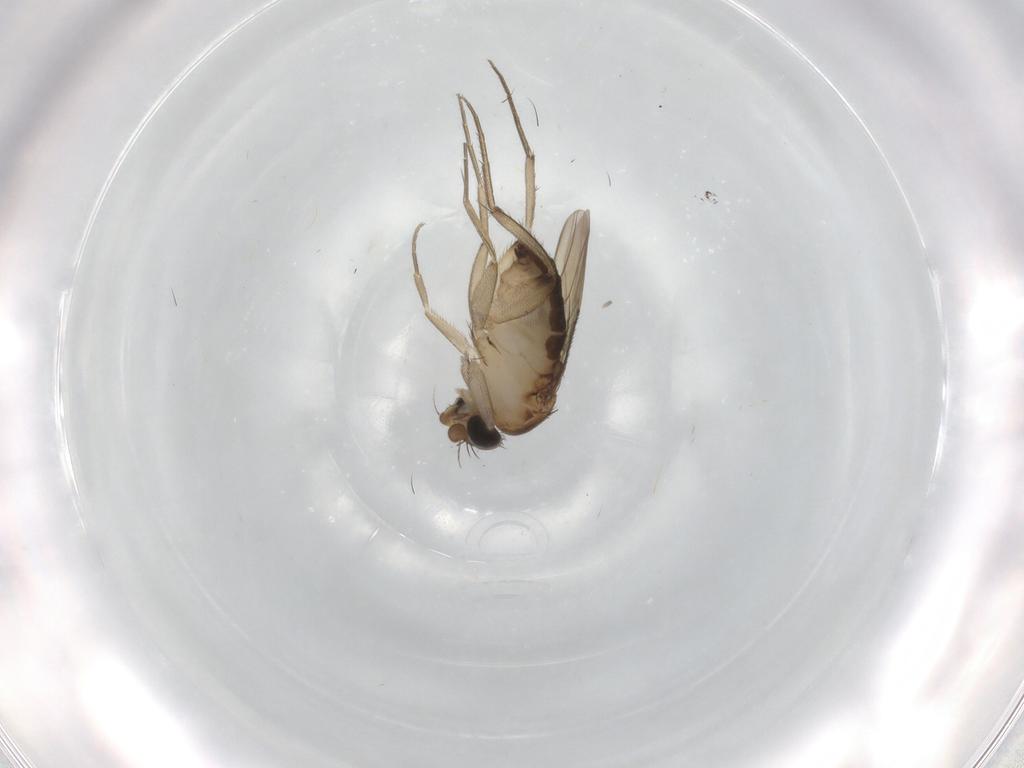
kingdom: Animalia
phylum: Arthropoda
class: Insecta
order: Diptera
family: Phoridae
